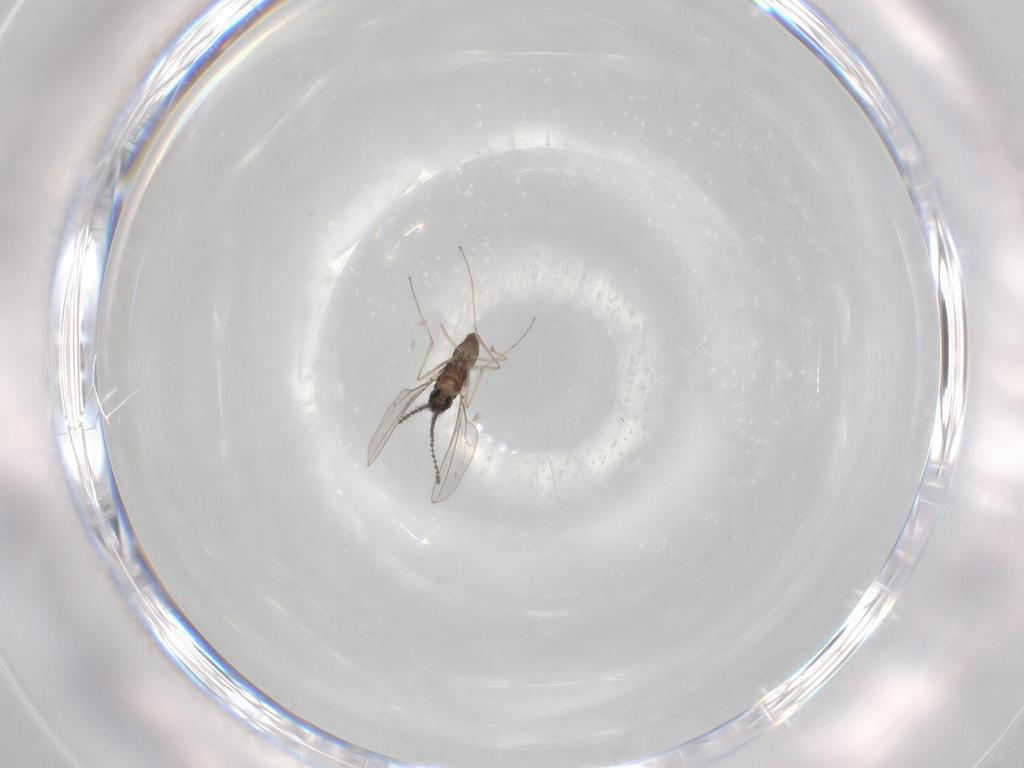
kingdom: Animalia
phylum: Arthropoda
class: Insecta
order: Diptera
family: Cecidomyiidae
